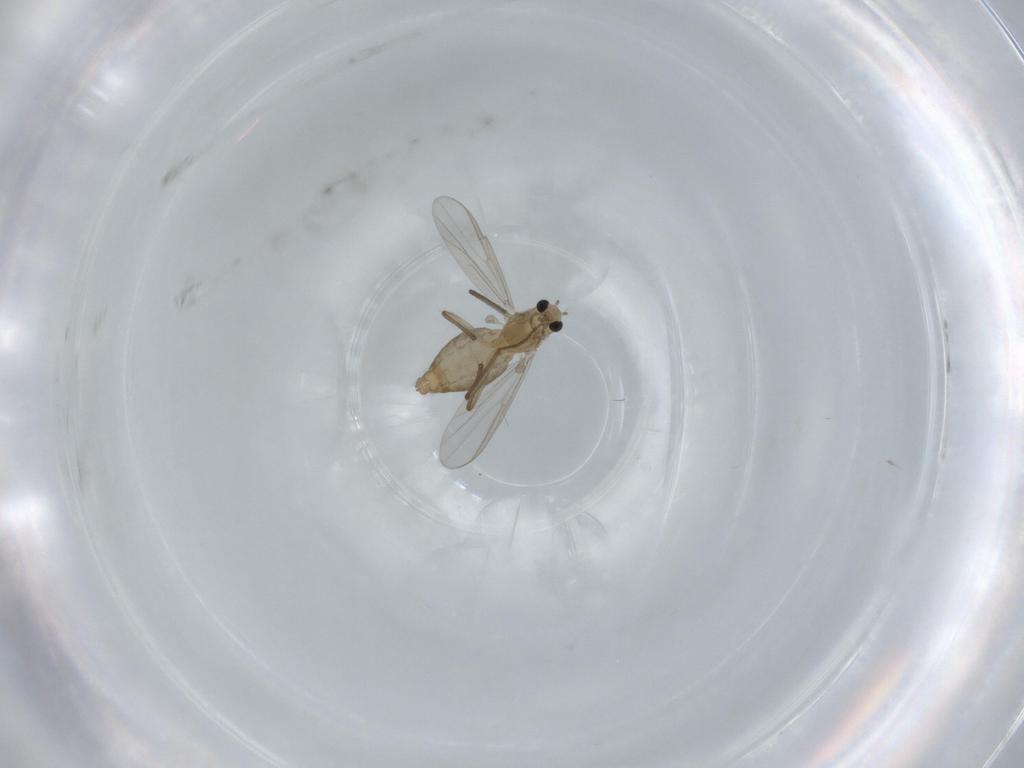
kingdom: Animalia
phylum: Arthropoda
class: Insecta
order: Diptera
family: Chironomidae
